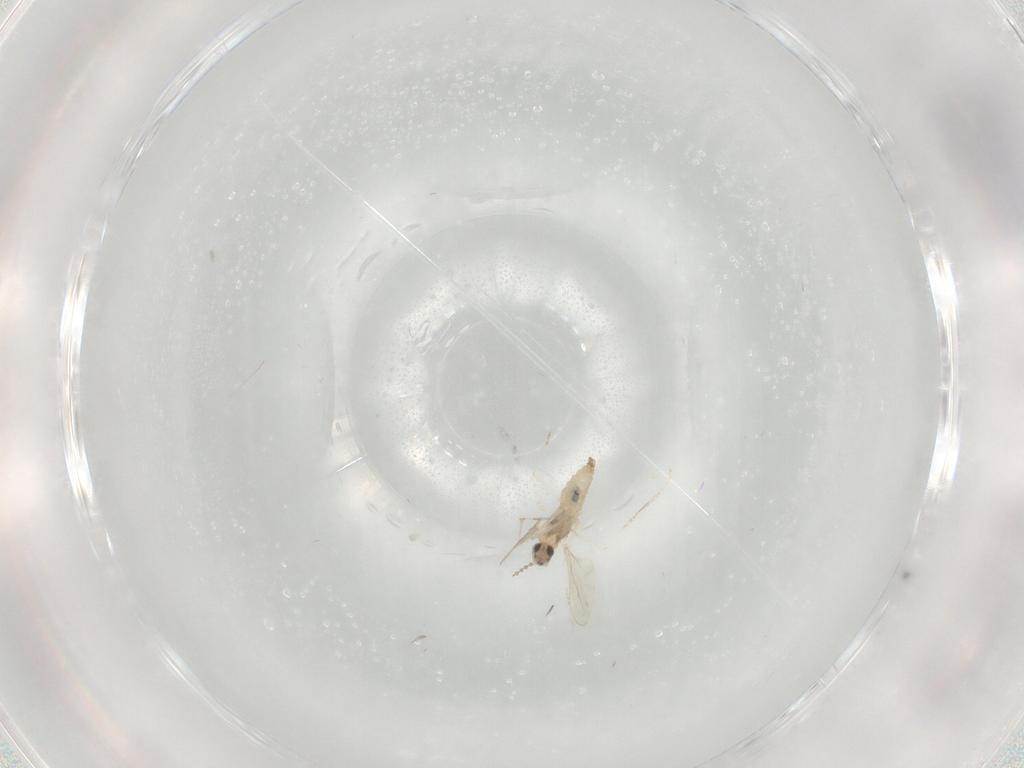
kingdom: Animalia
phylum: Arthropoda
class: Insecta
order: Diptera
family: Cecidomyiidae
